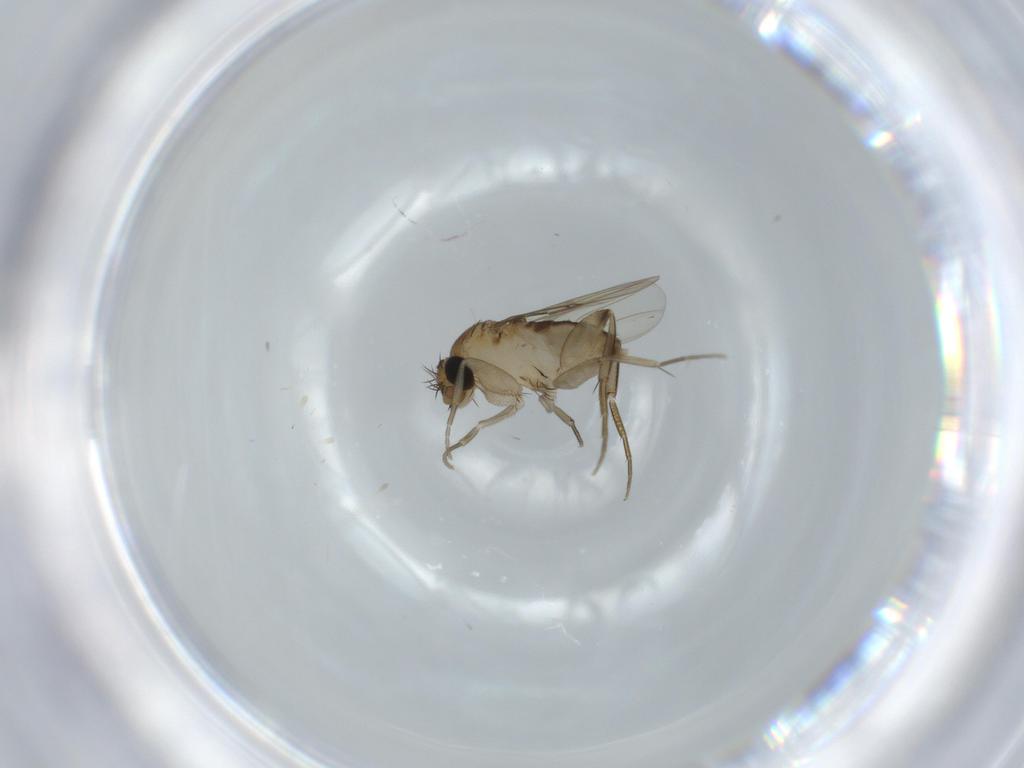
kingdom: Animalia
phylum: Arthropoda
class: Insecta
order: Diptera
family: Phoridae
